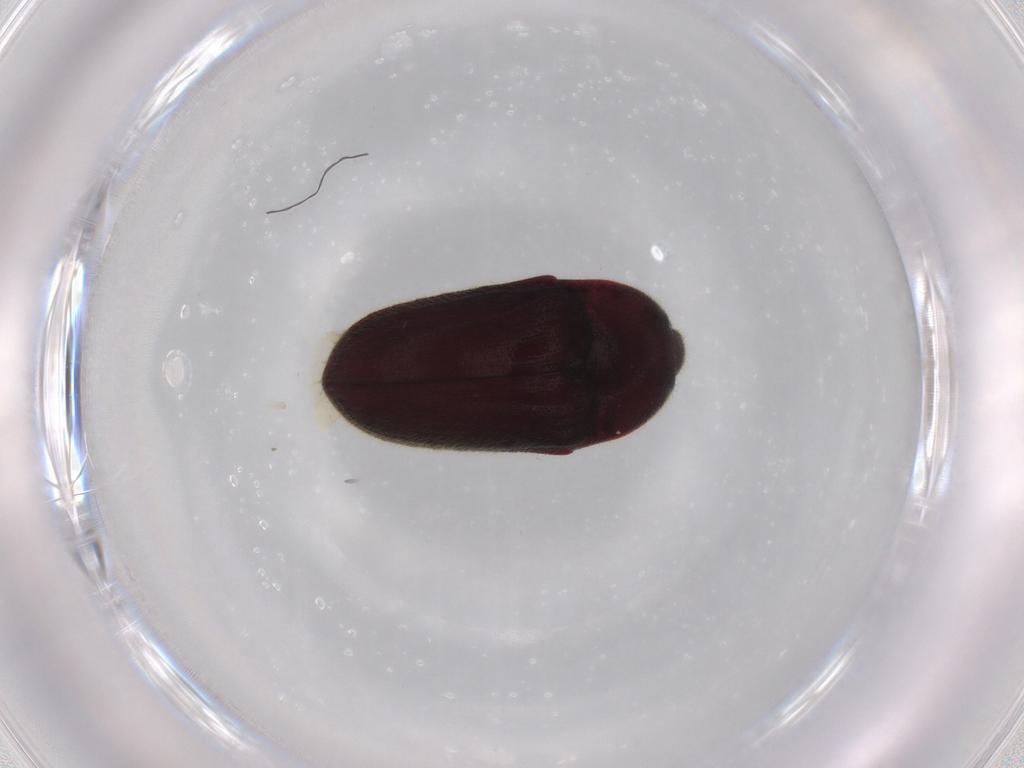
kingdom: Animalia
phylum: Arthropoda
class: Insecta
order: Coleoptera
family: Throscidae
